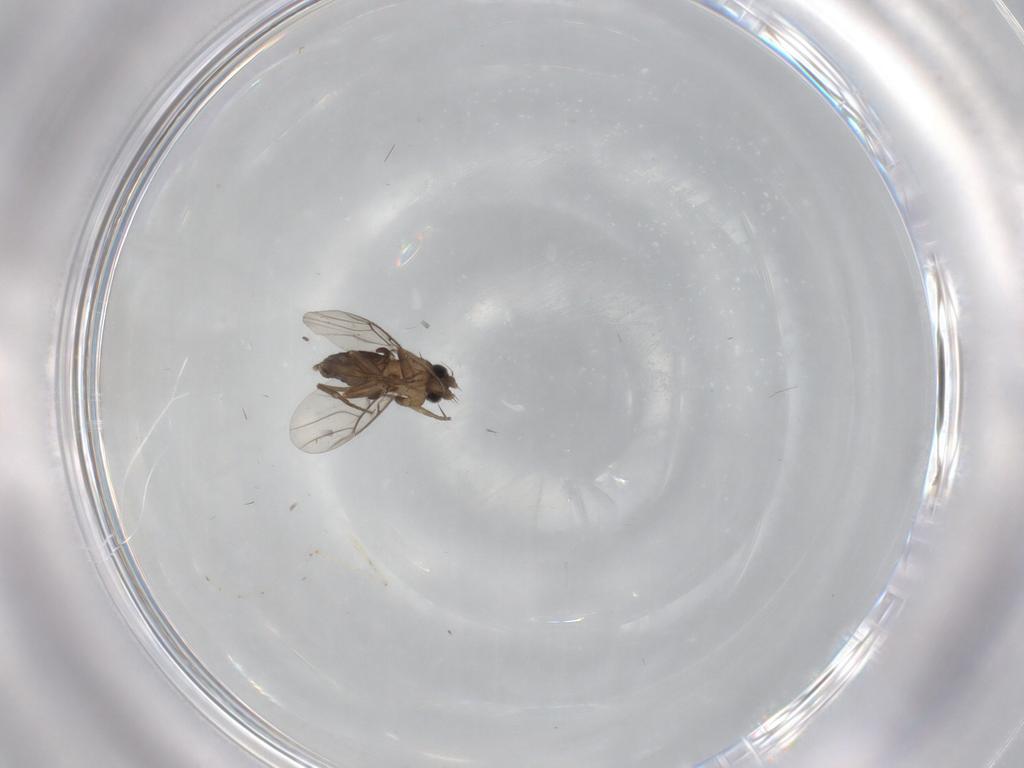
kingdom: Animalia
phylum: Arthropoda
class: Insecta
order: Diptera
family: Phoridae
